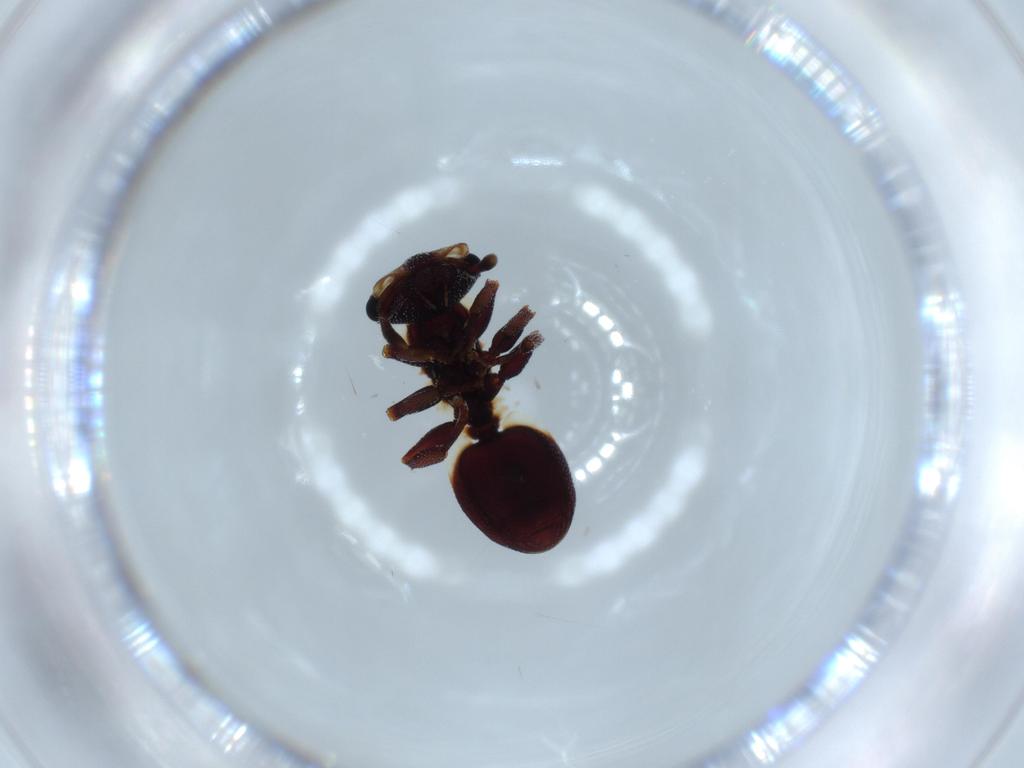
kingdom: Animalia
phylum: Arthropoda
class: Insecta
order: Hymenoptera
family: Formicidae
